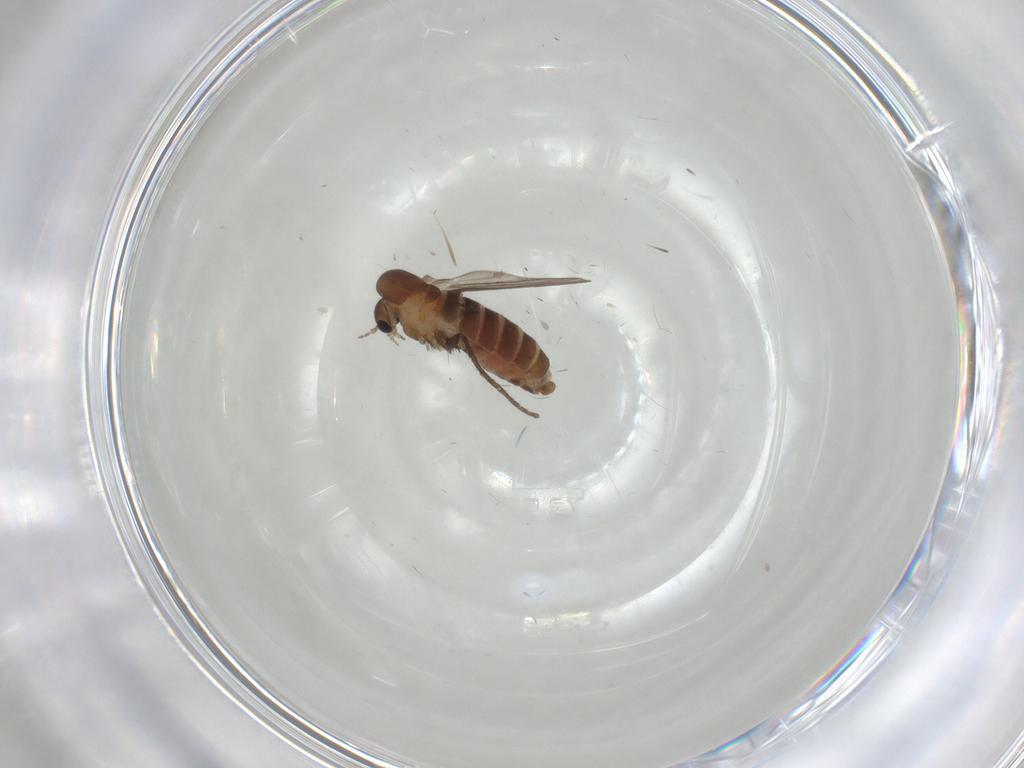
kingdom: Animalia
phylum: Arthropoda
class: Insecta
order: Diptera
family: Psychodidae
